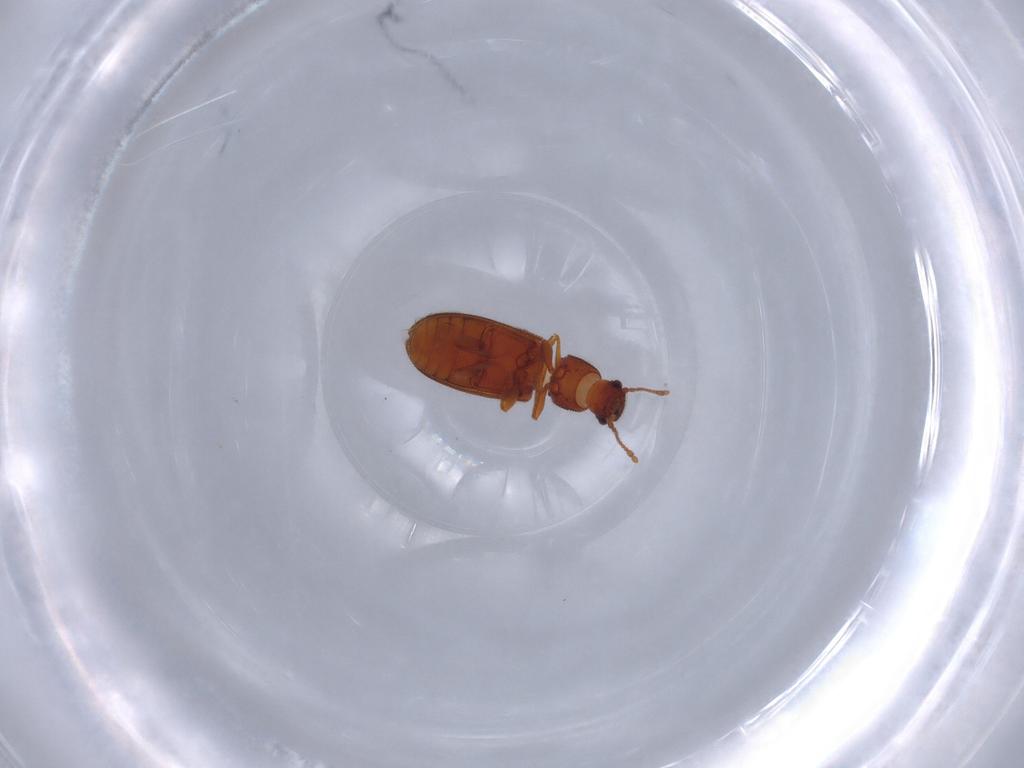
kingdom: Animalia
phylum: Arthropoda
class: Insecta
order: Coleoptera
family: Mycetophagidae
